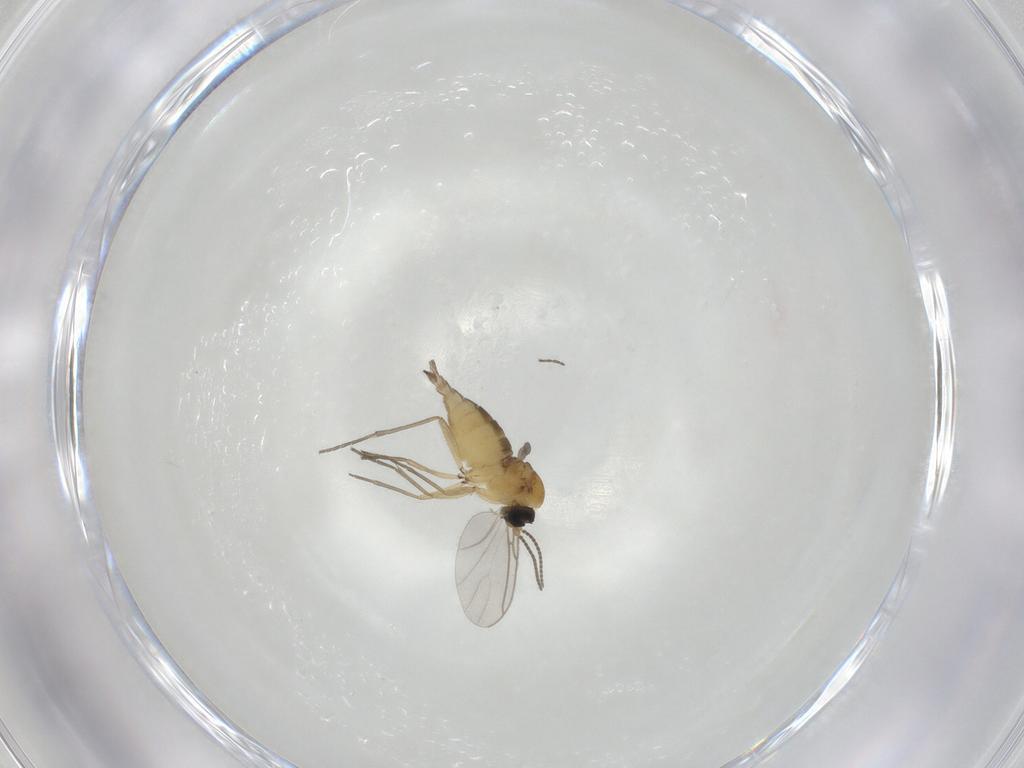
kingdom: Animalia
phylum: Arthropoda
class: Insecta
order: Diptera
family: Sciaridae
